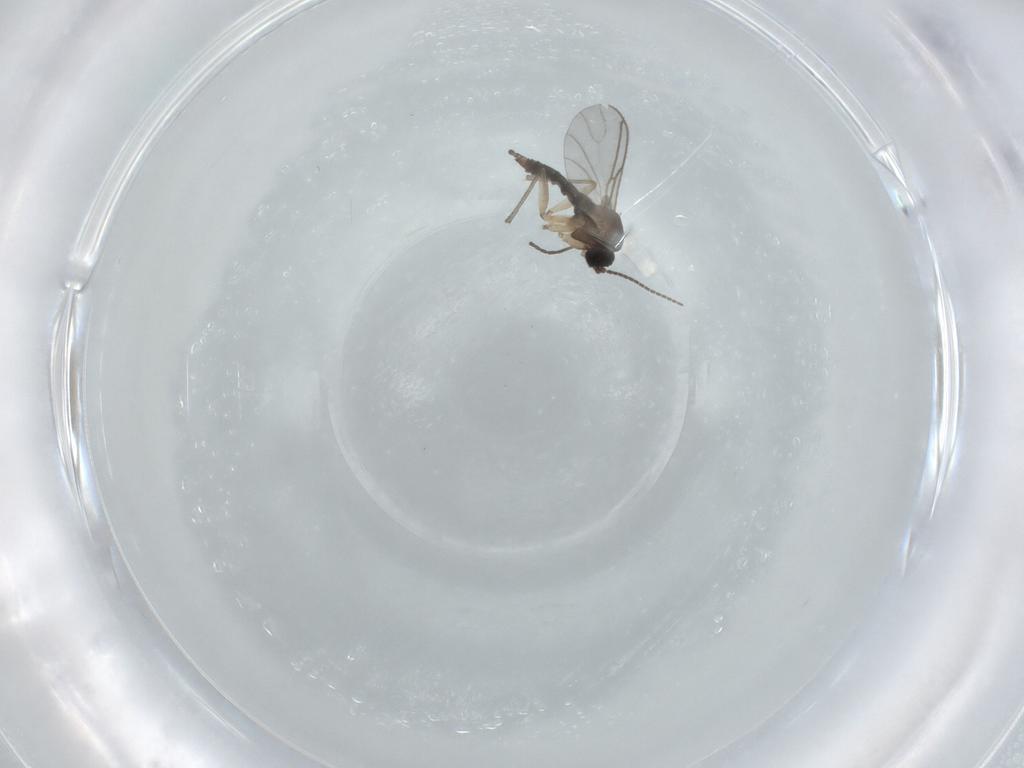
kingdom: Animalia
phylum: Arthropoda
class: Insecta
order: Diptera
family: Sciaridae
